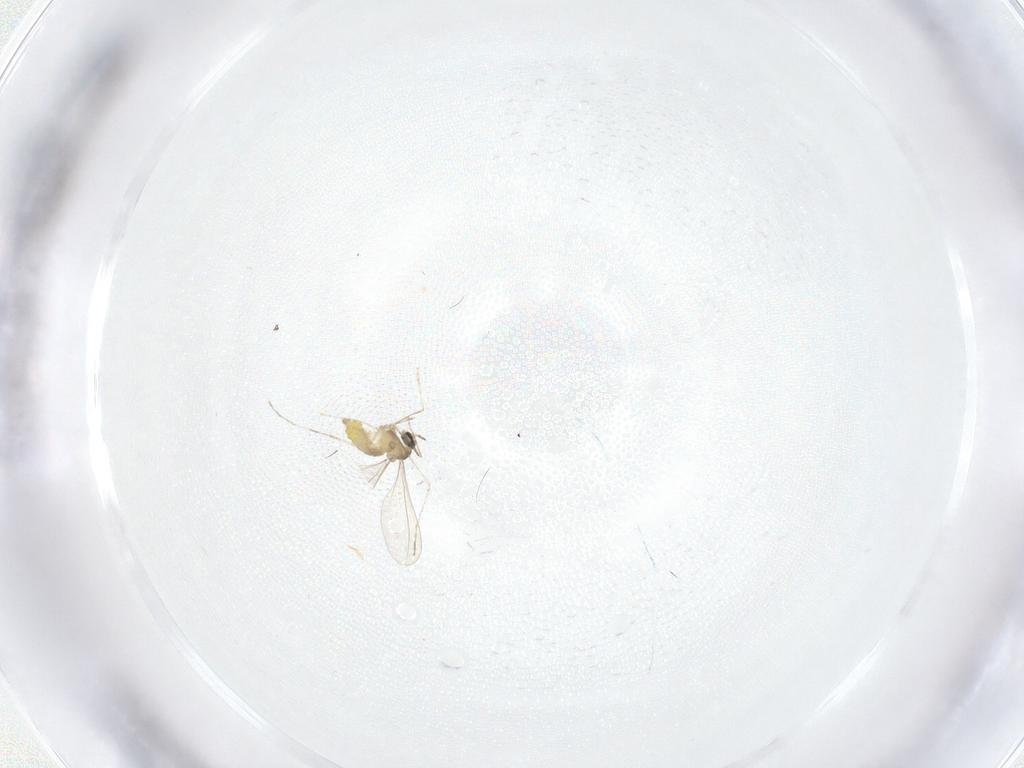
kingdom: Animalia
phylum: Arthropoda
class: Insecta
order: Diptera
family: Cecidomyiidae
